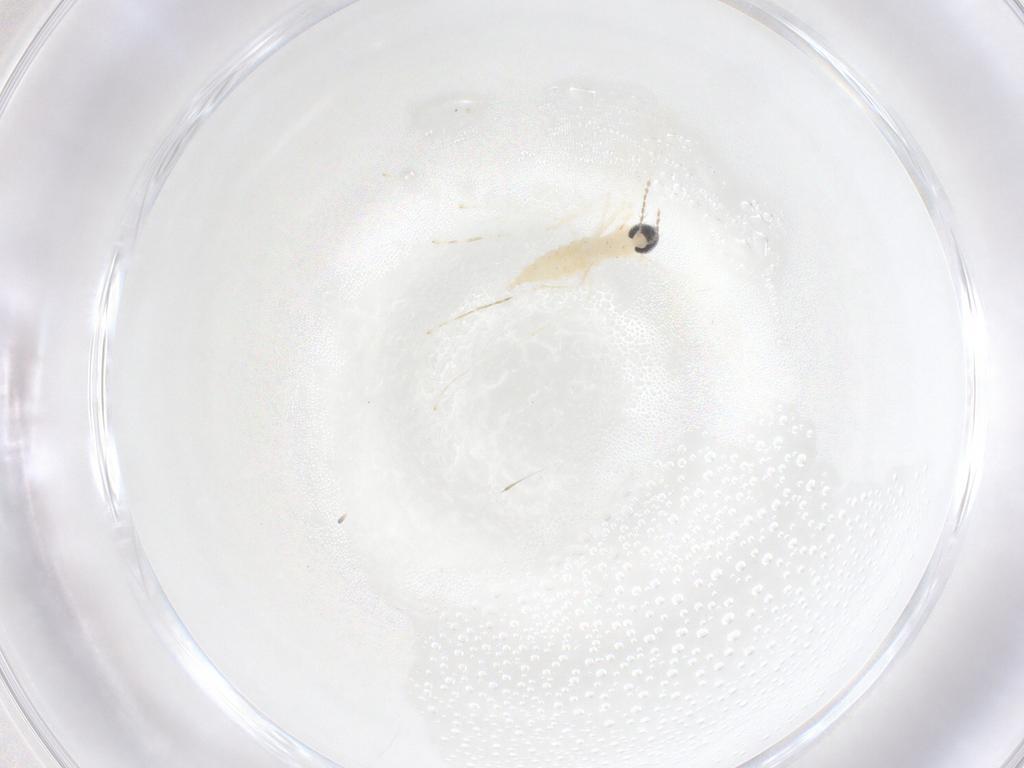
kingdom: Animalia
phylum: Arthropoda
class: Insecta
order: Diptera
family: Cecidomyiidae
